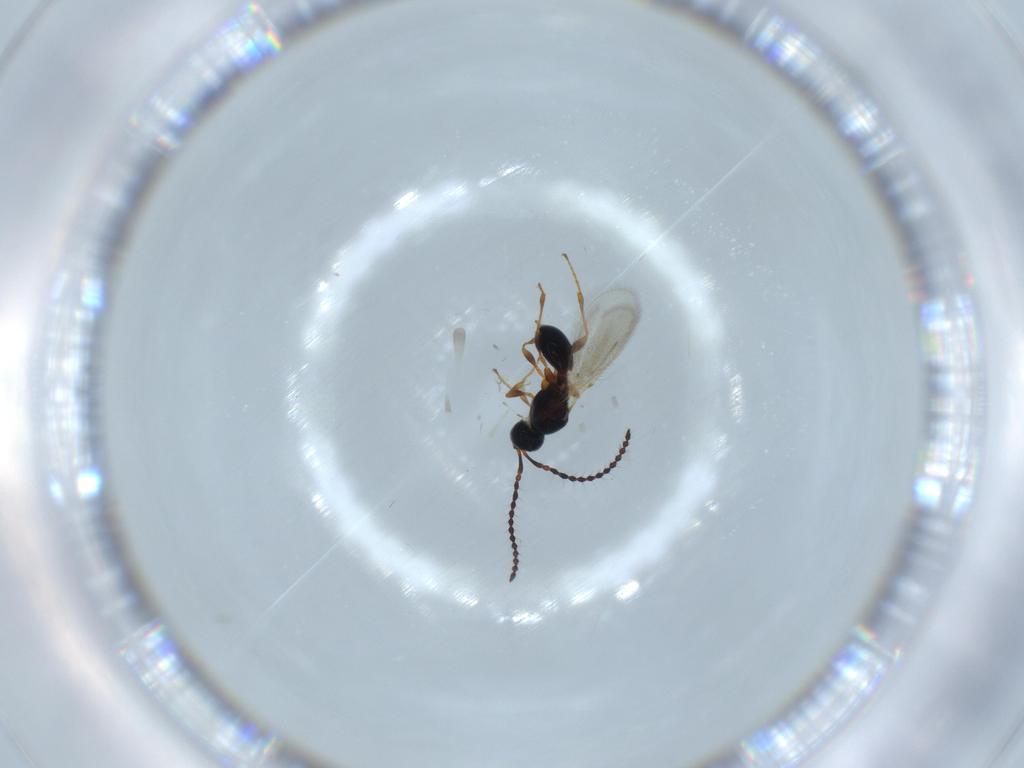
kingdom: Animalia
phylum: Arthropoda
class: Insecta
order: Hymenoptera
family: Diapriidae
